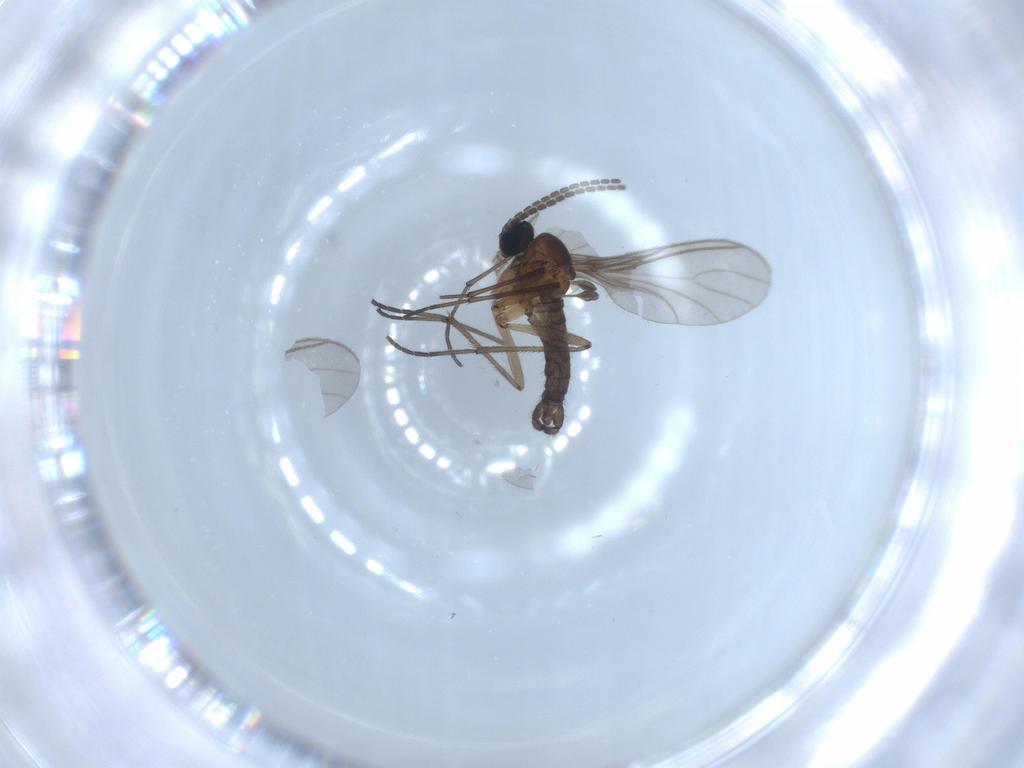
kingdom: Animalia
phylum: Arthropoda
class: Insecta
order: Diptera
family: Sciaridae
